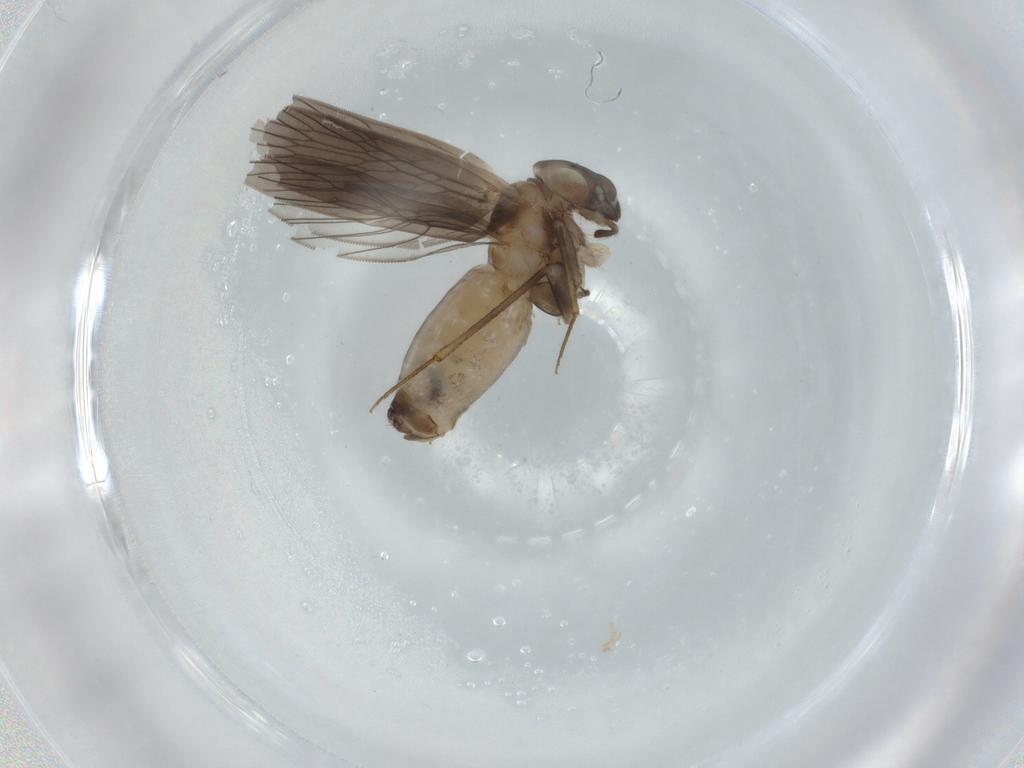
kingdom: Animalia
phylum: Arthropoda
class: Insecta
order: Psocodea
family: Lepidopsocidae
